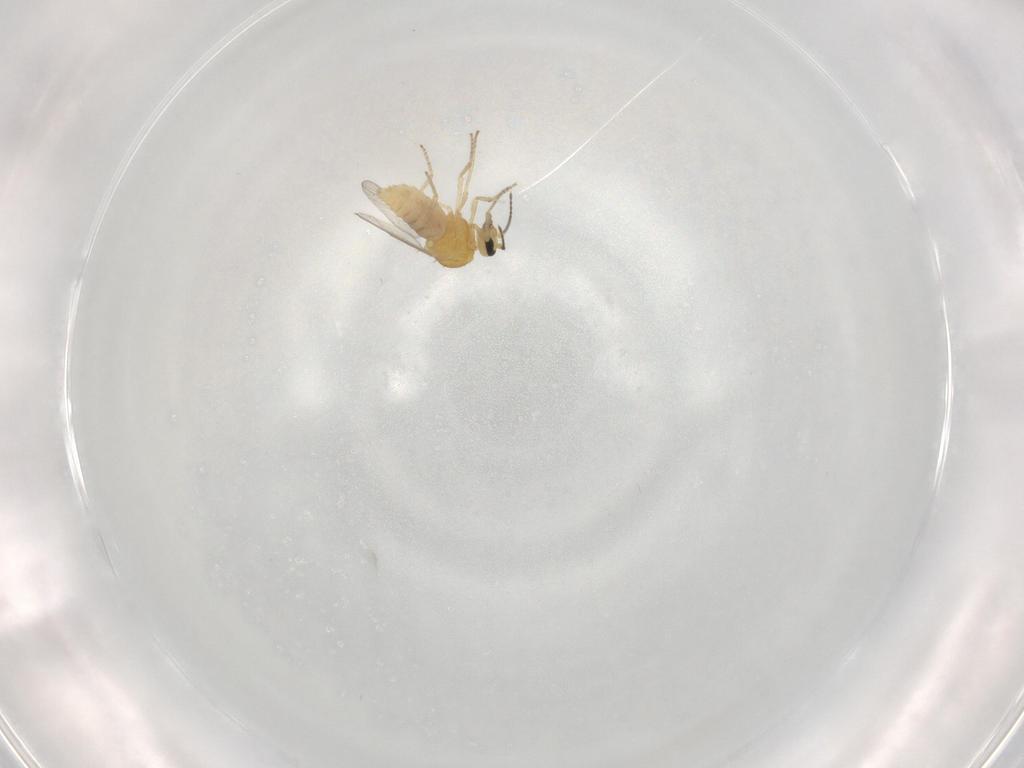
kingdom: Animalia
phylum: Arthropoda
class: Insecta
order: Diptera
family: Ceratopogonidae
